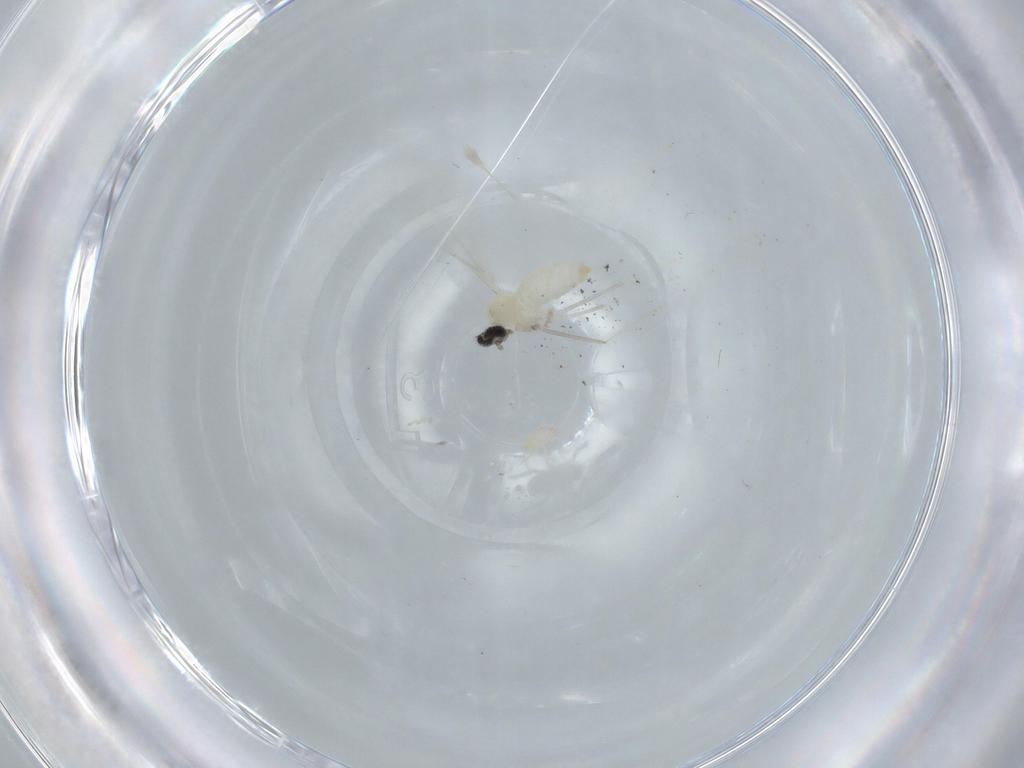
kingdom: Animalia
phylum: Arthropoda
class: Insecta
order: Diptera
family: Cecidomyiidae
